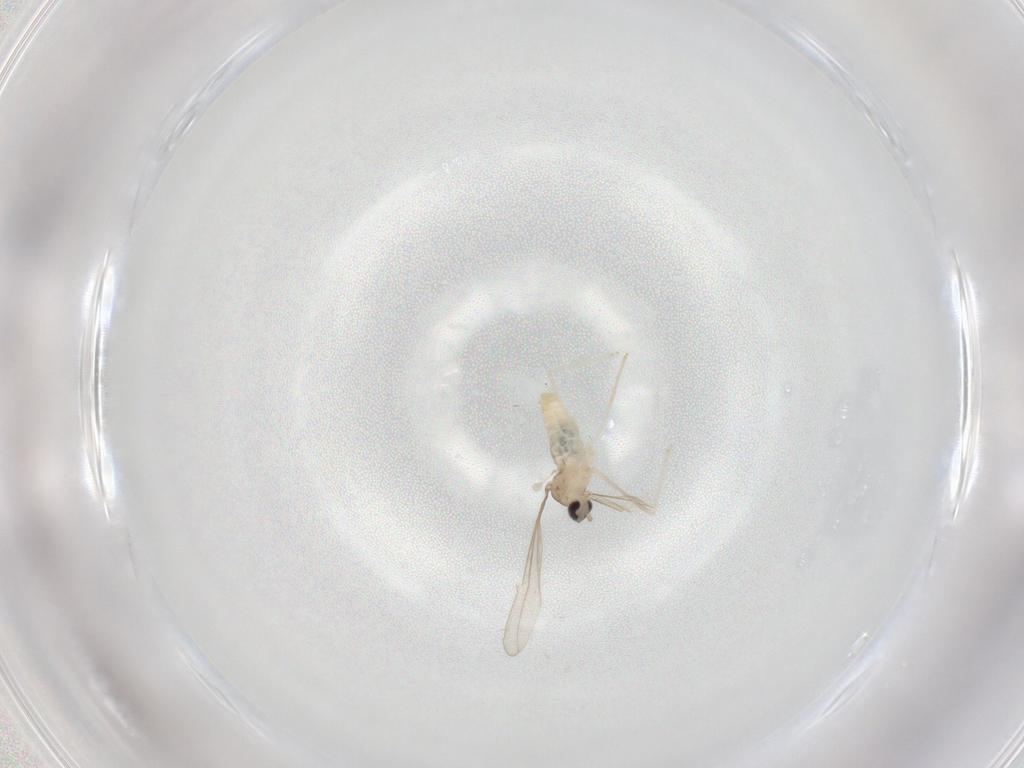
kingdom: Animalia
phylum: Arthropoda
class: Insecta
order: Diptera
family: Cecidomyiidae
